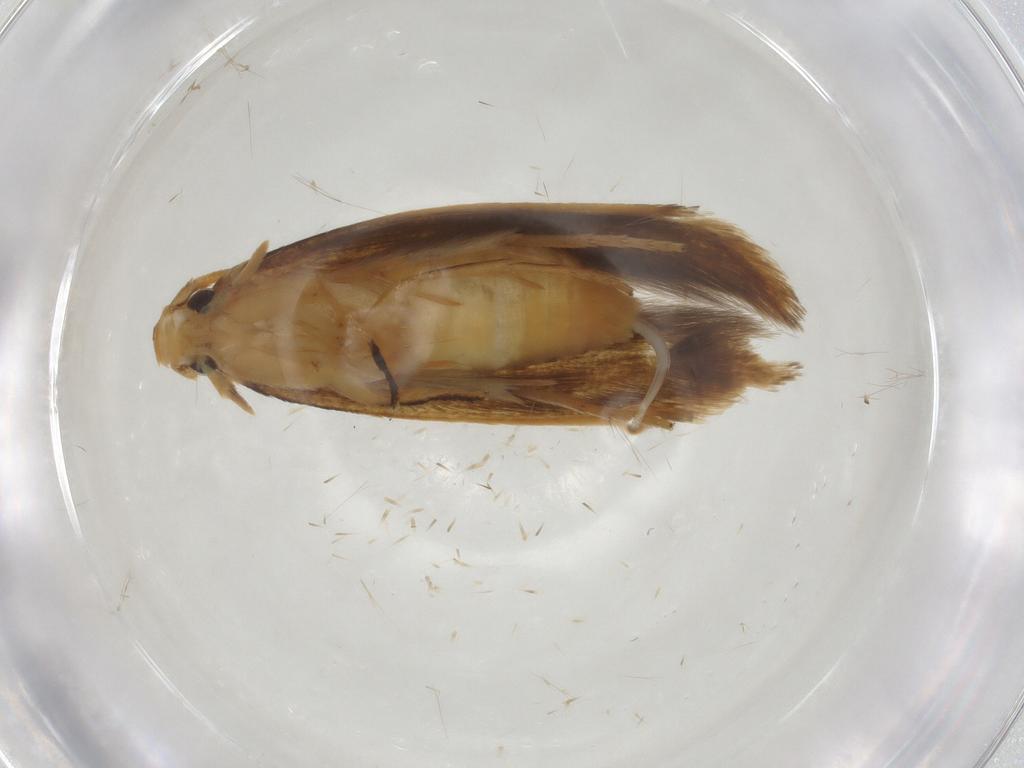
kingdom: Animalia
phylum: Arthropoda
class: Insecta
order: Lepidoptera
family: Tineidae
